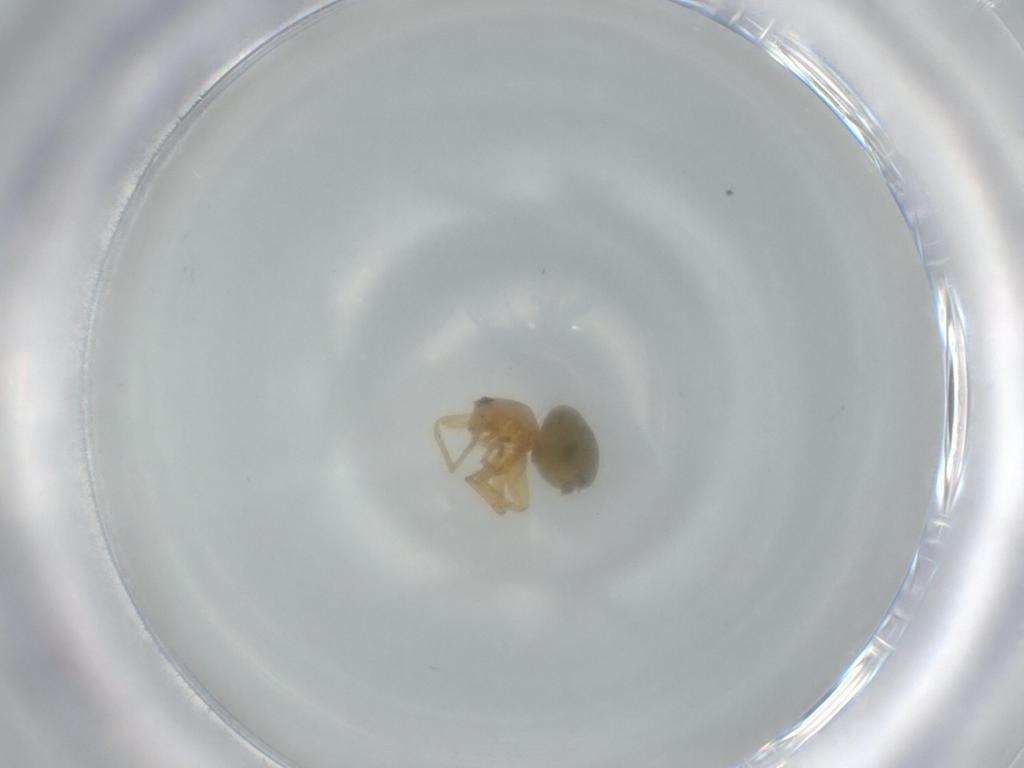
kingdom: Animalia
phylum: Arthropoda
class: Arachnida
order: Araneae
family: Oonopidae
